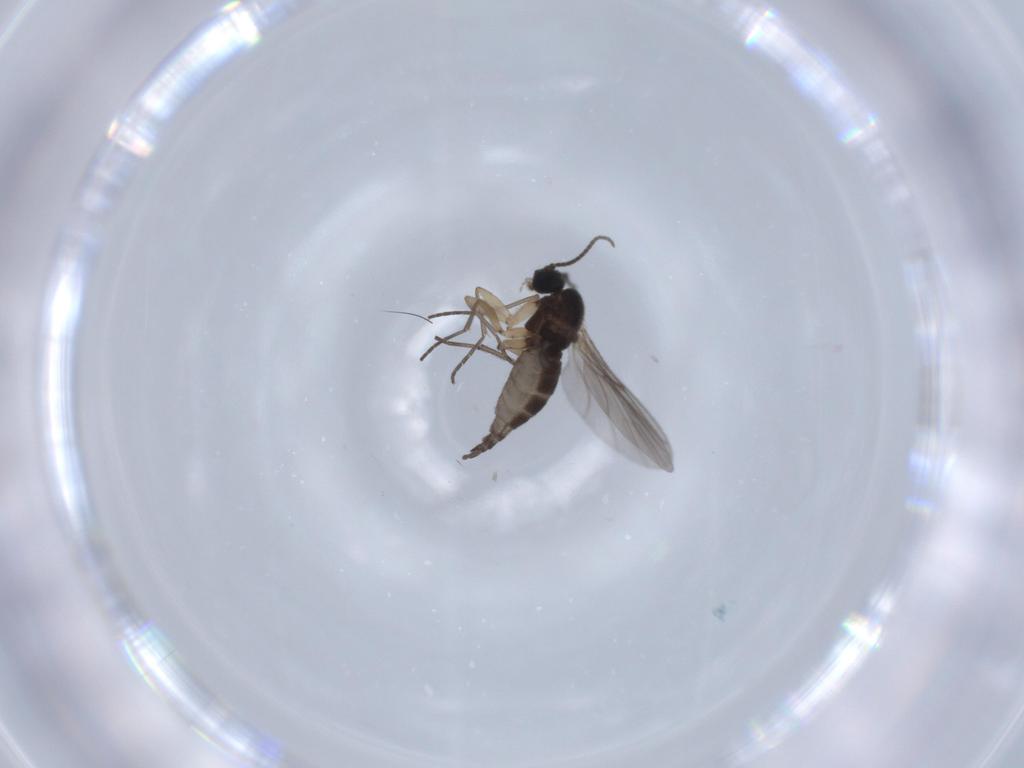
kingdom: Animalia
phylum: Arthropoda
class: Insecta
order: Diptera
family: Sciaridae
